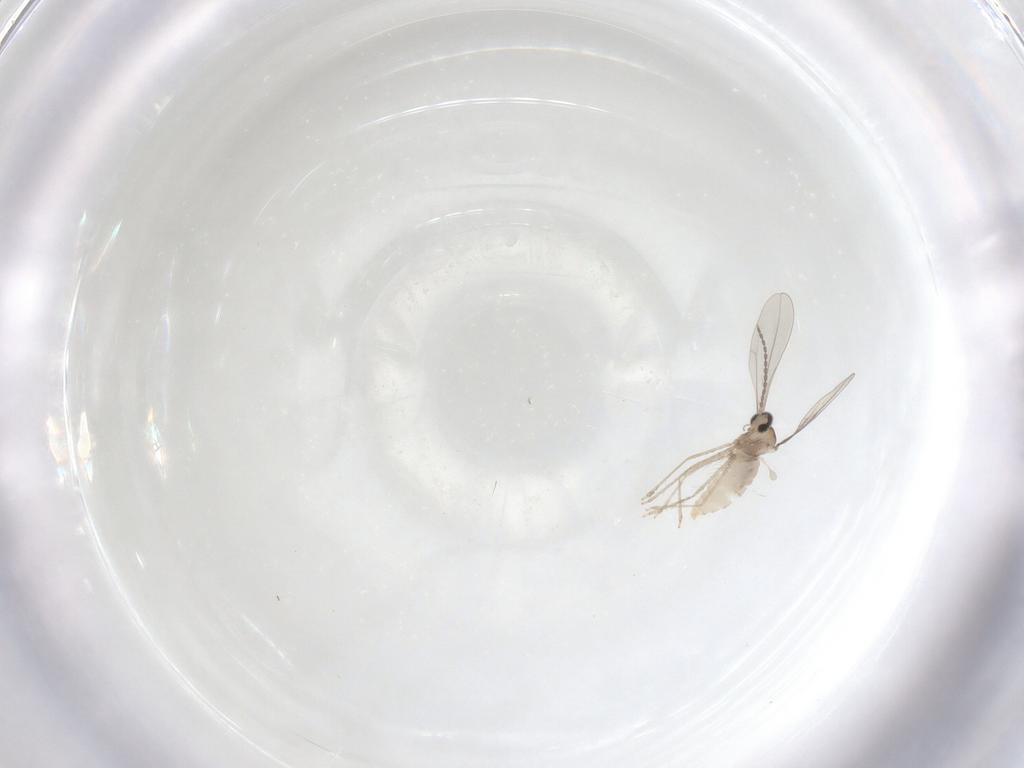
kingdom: Animalia
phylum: Arthropoda
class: Insecta
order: Diptera
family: Cecidomyiidae
